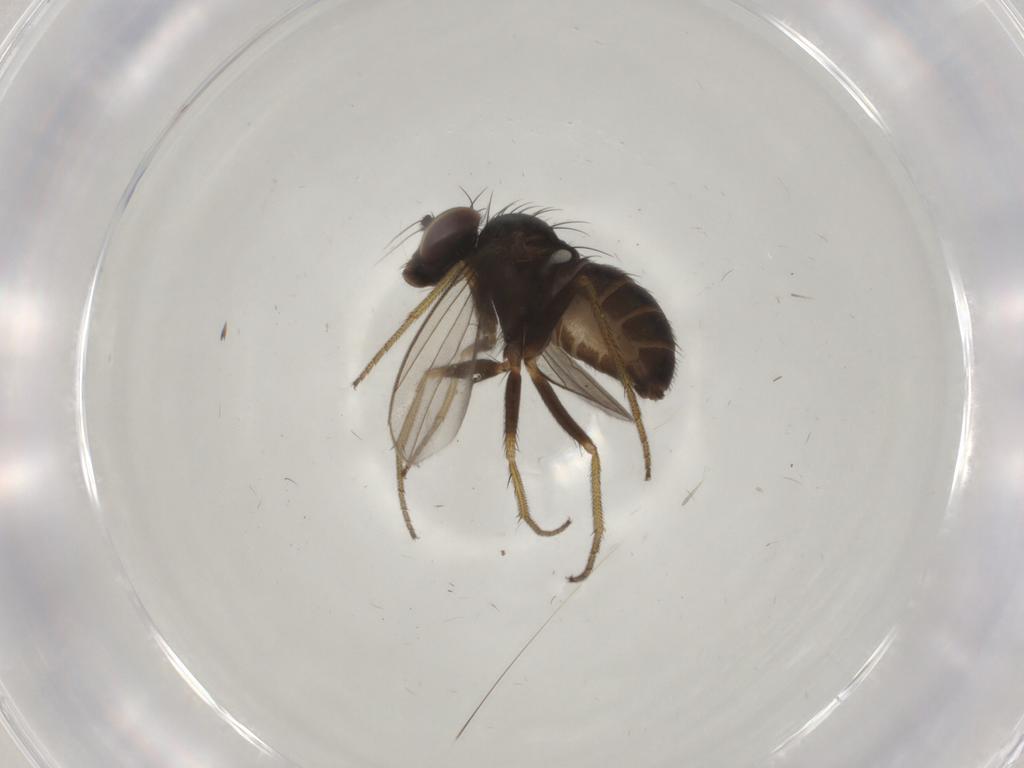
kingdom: Animalia
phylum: Arthropoda
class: Insecta
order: Diptera
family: Dolichopodidae
